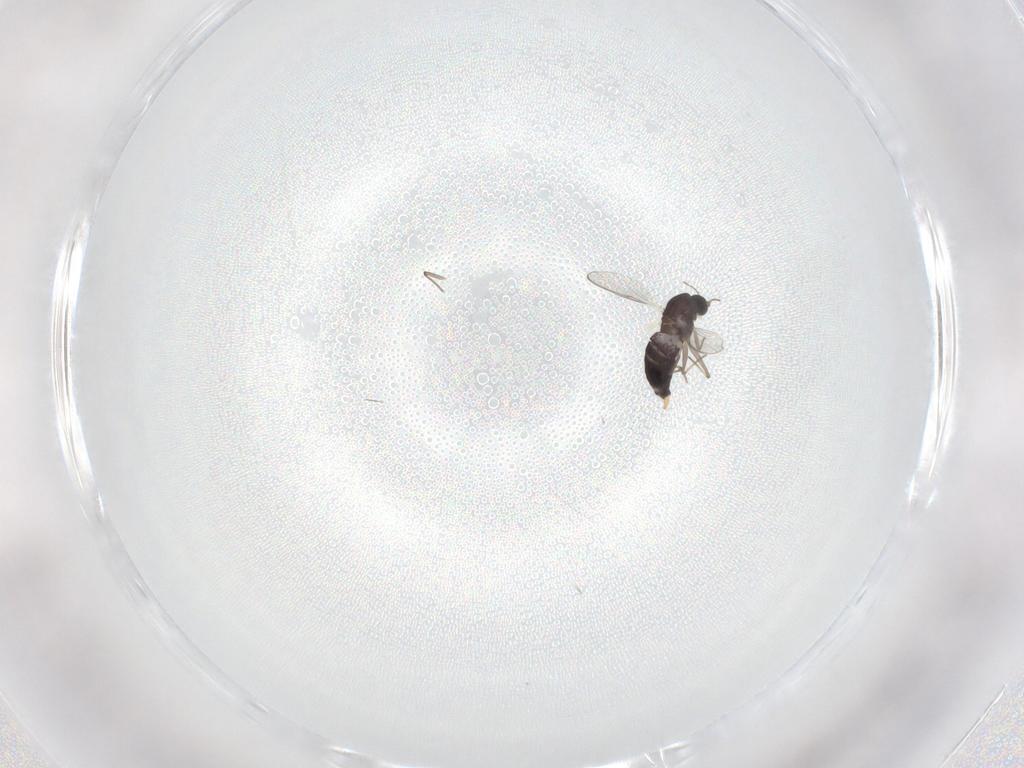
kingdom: Animalia
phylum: Arthropoda
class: Insecta
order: Diptera
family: Chironomidae
